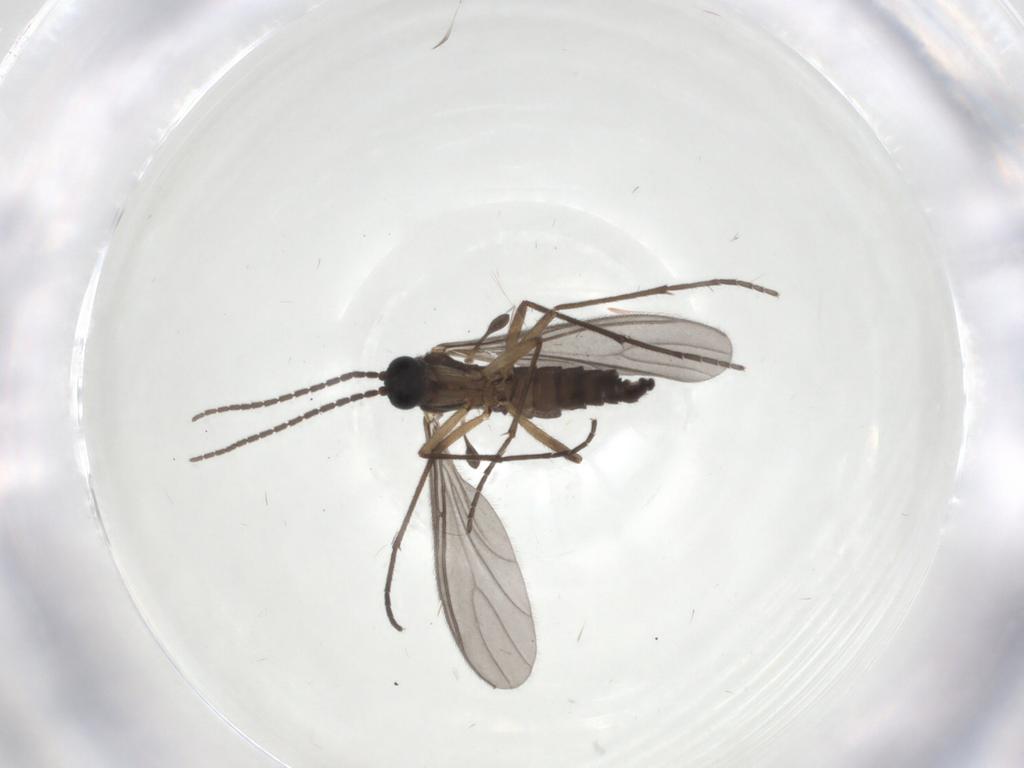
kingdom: Animalia
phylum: Arthropoda
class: Insecta
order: Diptera
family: Sciaridae
